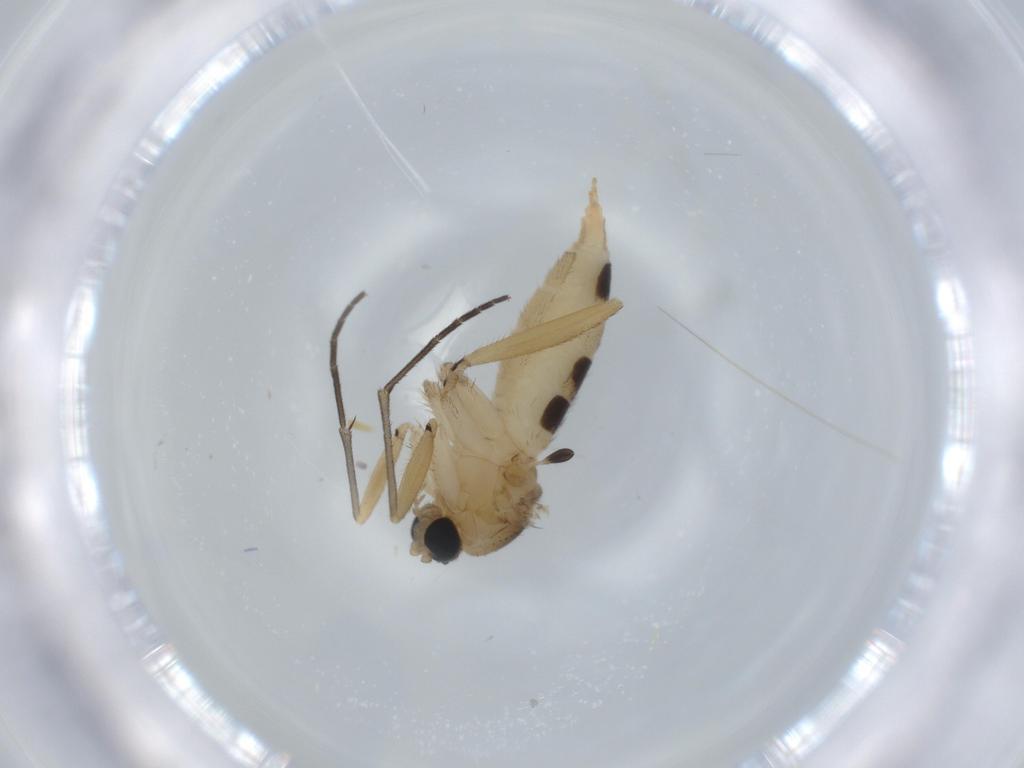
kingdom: Animalia
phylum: Arthropoda
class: Insecta
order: Diptera
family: Sciaridae
